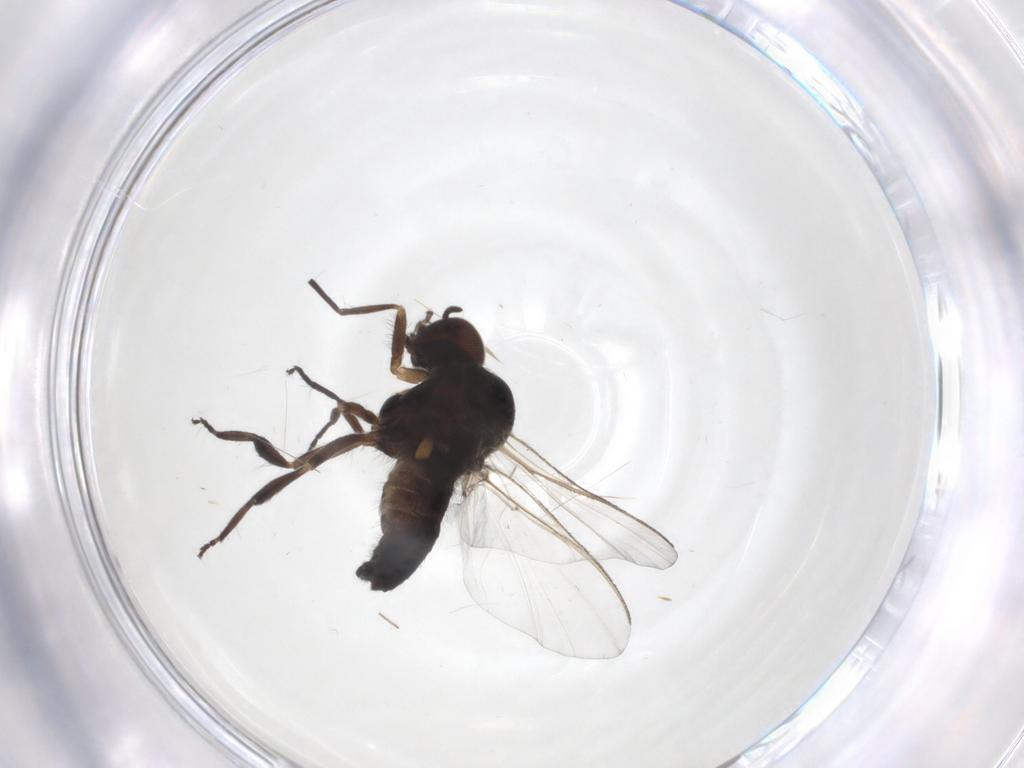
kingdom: Animalia
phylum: Arthropoda
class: Insecta
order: Diptera
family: Cecidomyiidae
